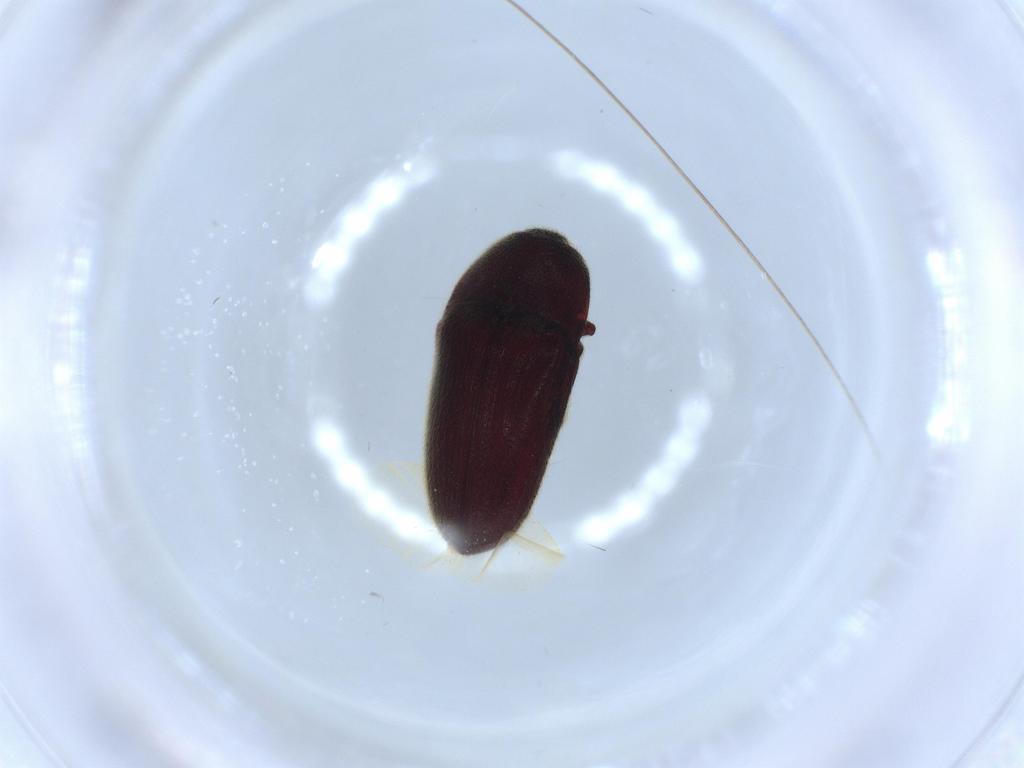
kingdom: Animalia
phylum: Arthropoda
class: Insecta
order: Coleoptera
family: Throscidae
